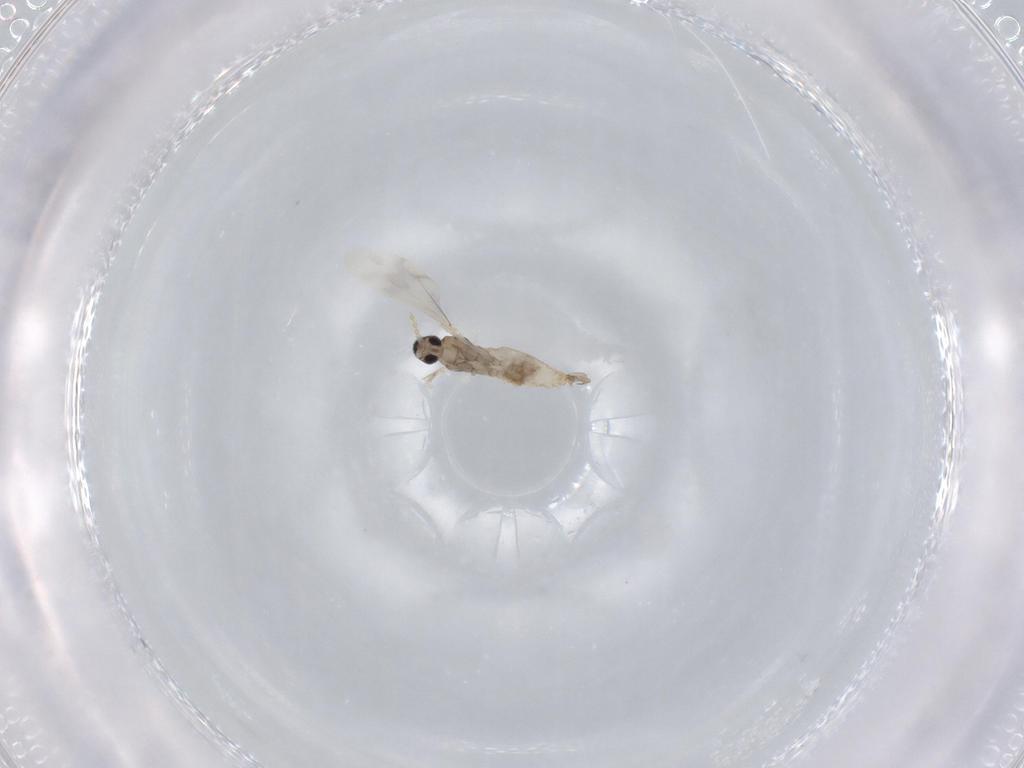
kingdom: Animalia
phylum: Arthropoda
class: Insecta
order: Diptera
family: Cecidomyiidae
